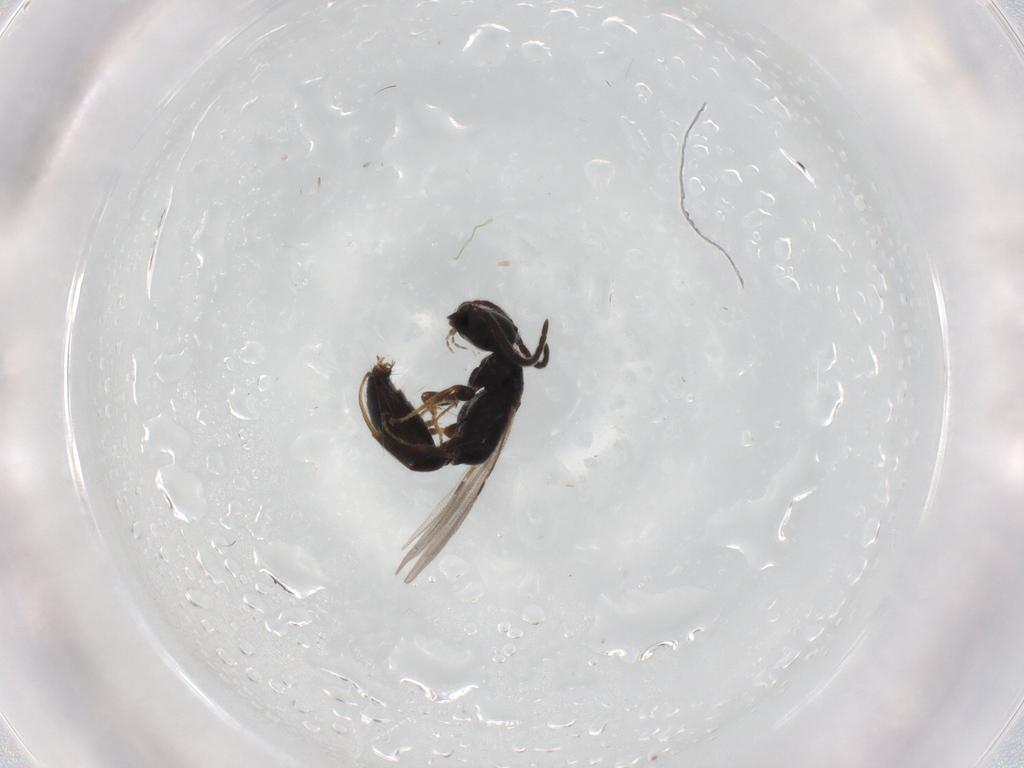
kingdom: Animalia
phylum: Arthropoda
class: Insecta
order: Hymenoptera
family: Bethylidae
